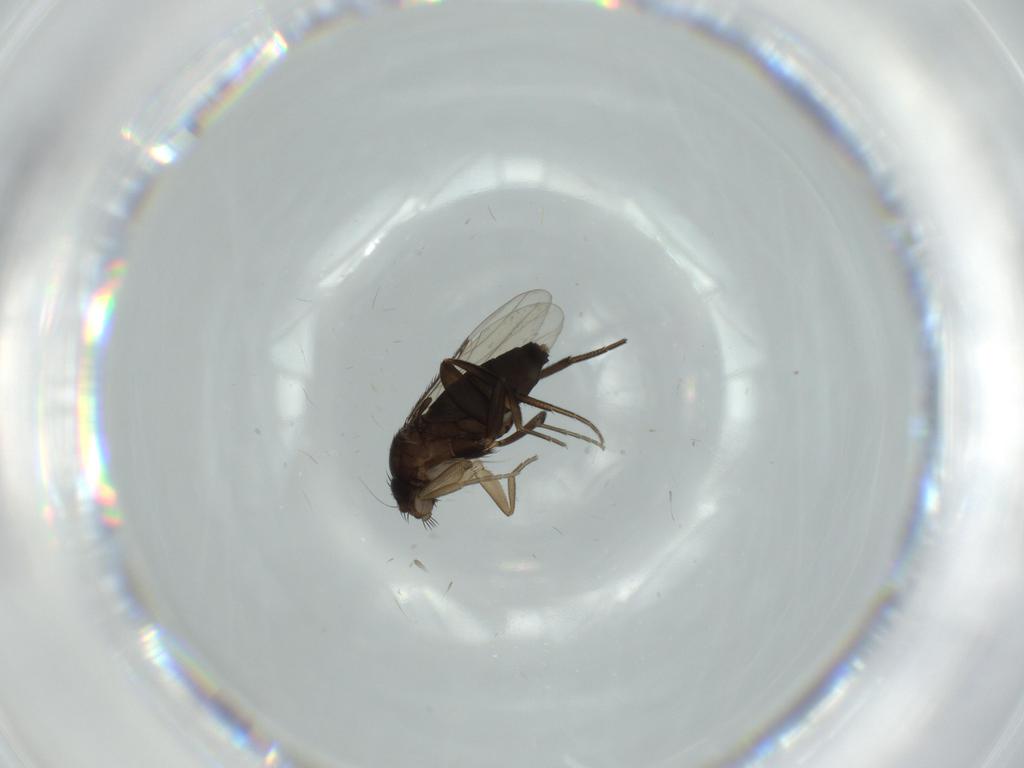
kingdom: Animalia
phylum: Arthropoda
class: Insecta
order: Diptera
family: Phoridae
